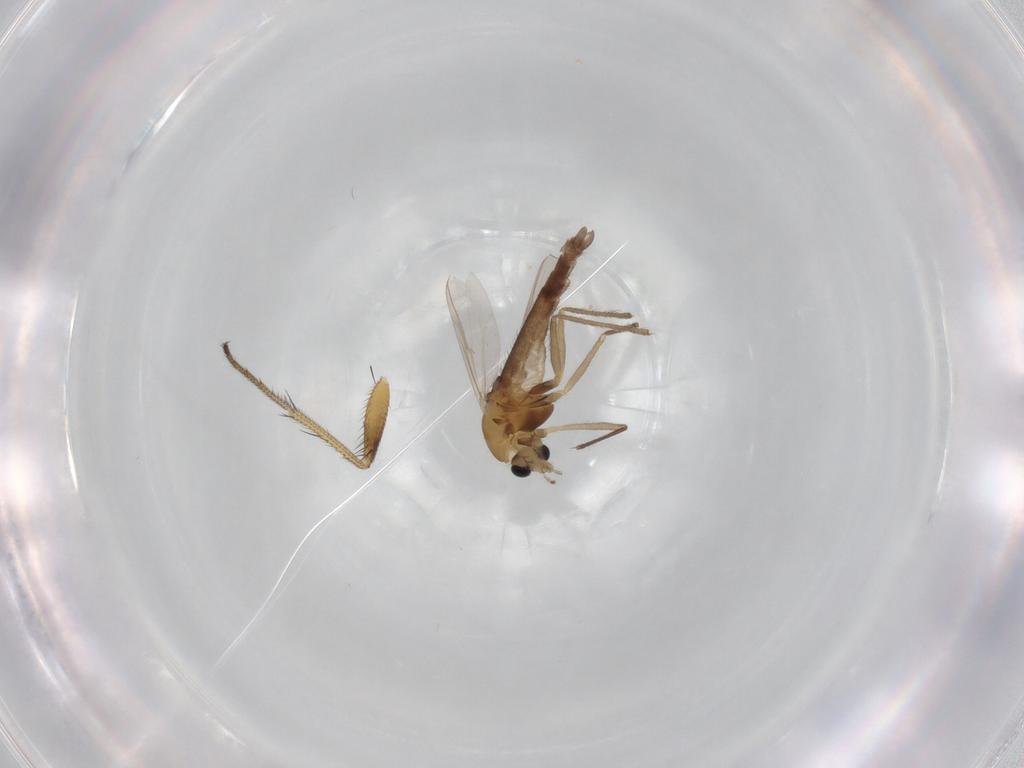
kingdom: Animalia
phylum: Arthropoda
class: Insecta
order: Diptera
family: Chironomidae
